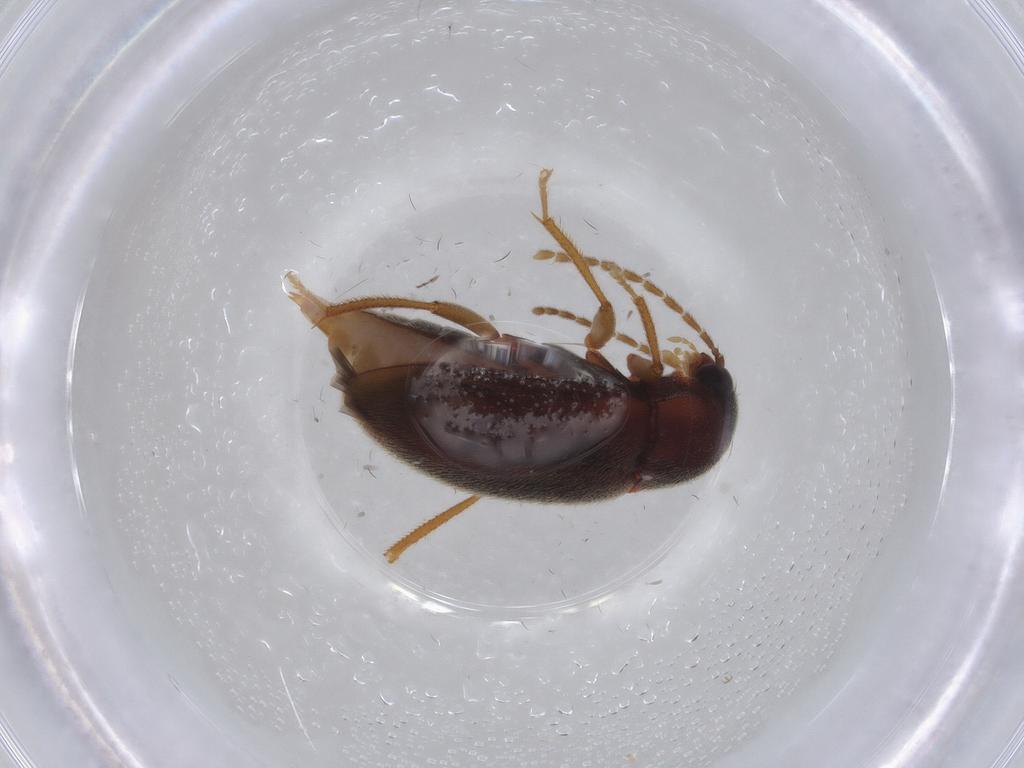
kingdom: Animalia
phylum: Arthropoda
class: Insecta
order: Coleoptera
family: Ptilodactylidae
